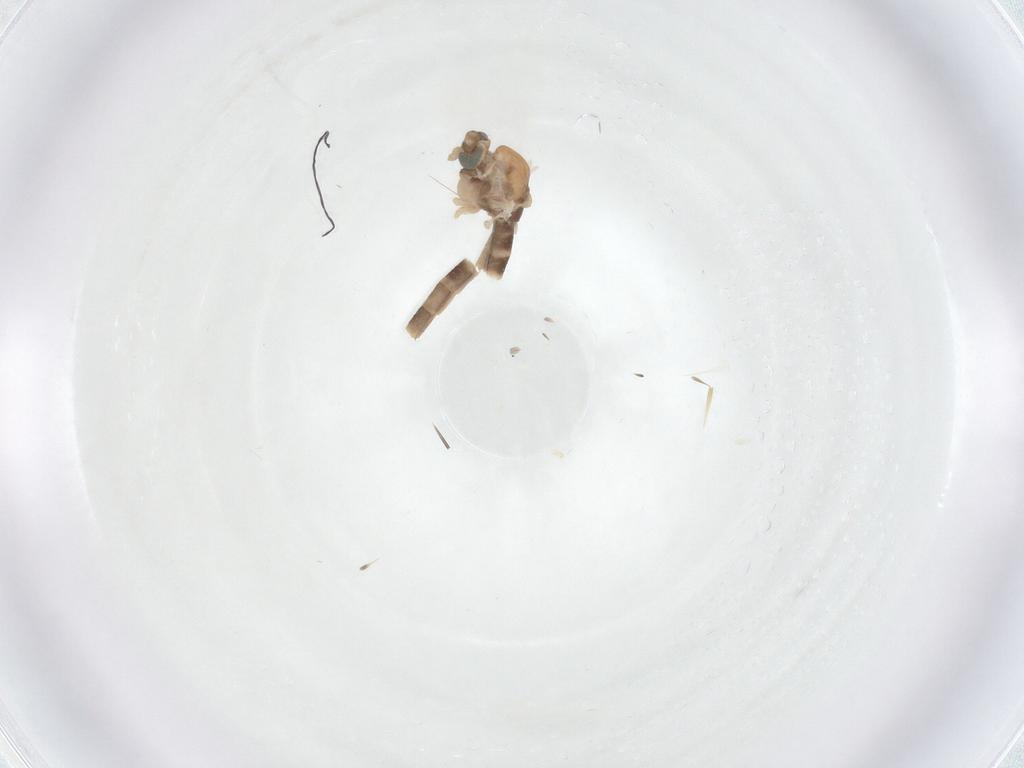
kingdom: Animalia
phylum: Arthropoda
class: Insecta
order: Diptera
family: Chironomidae
